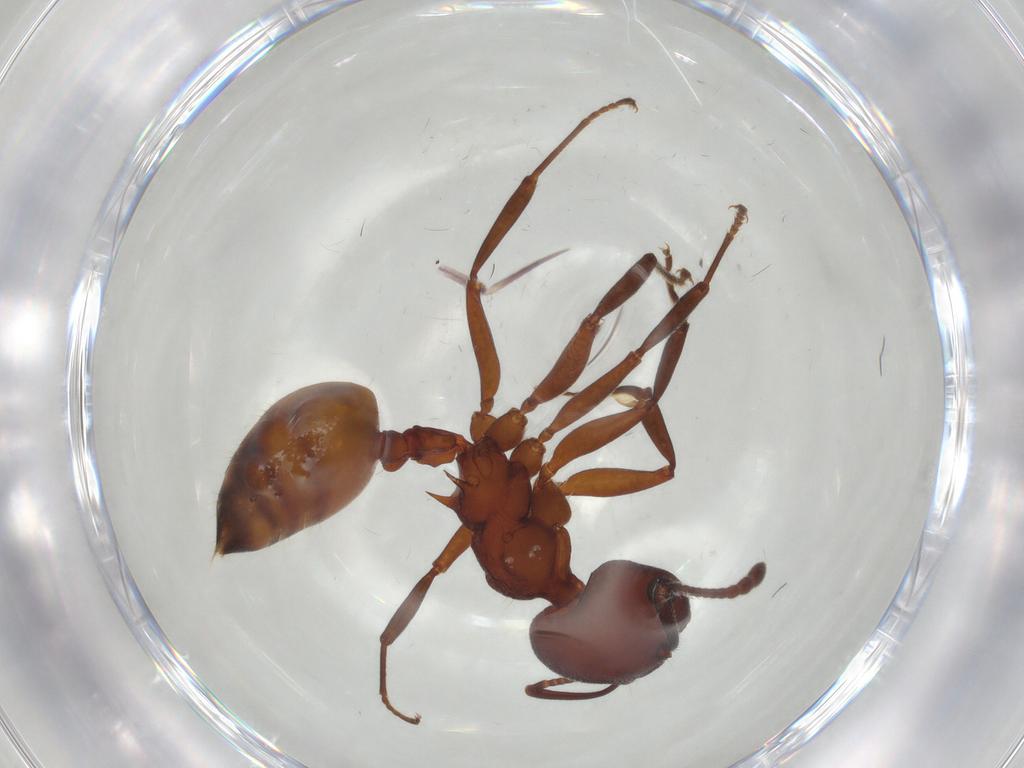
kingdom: Animalia
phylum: Arthropoda
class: Insecta
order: Hymenoptera
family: Formicidae
